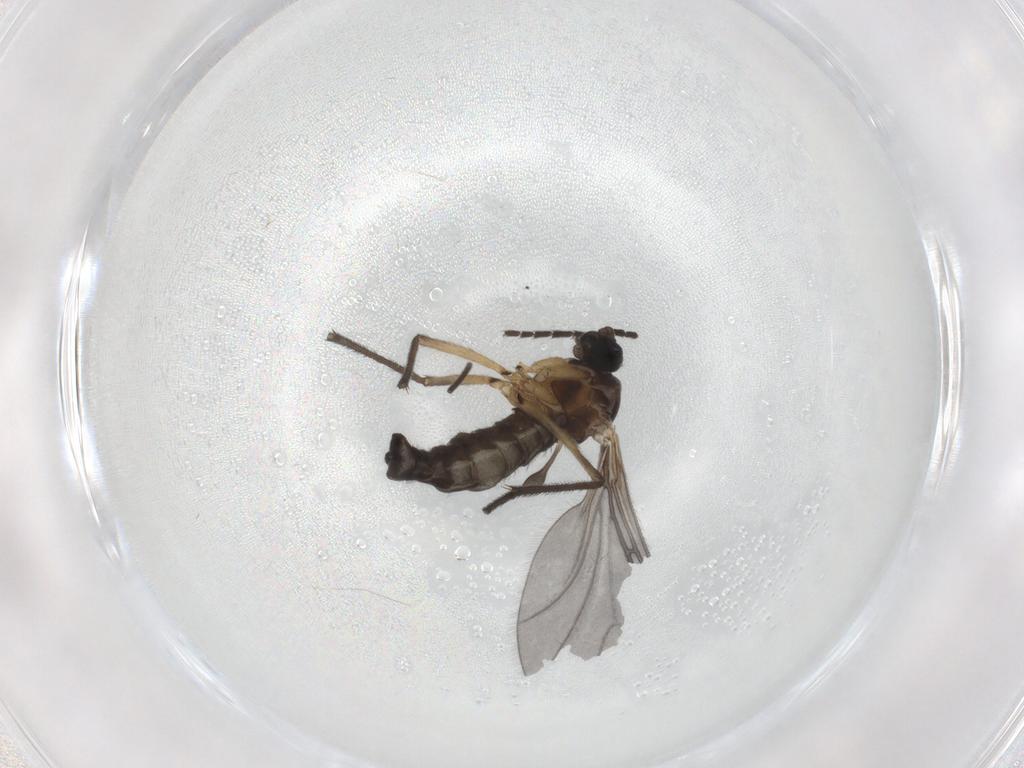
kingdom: Animalia
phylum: Arthropoda
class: Insecta
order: Diptera
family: Sciaridae
